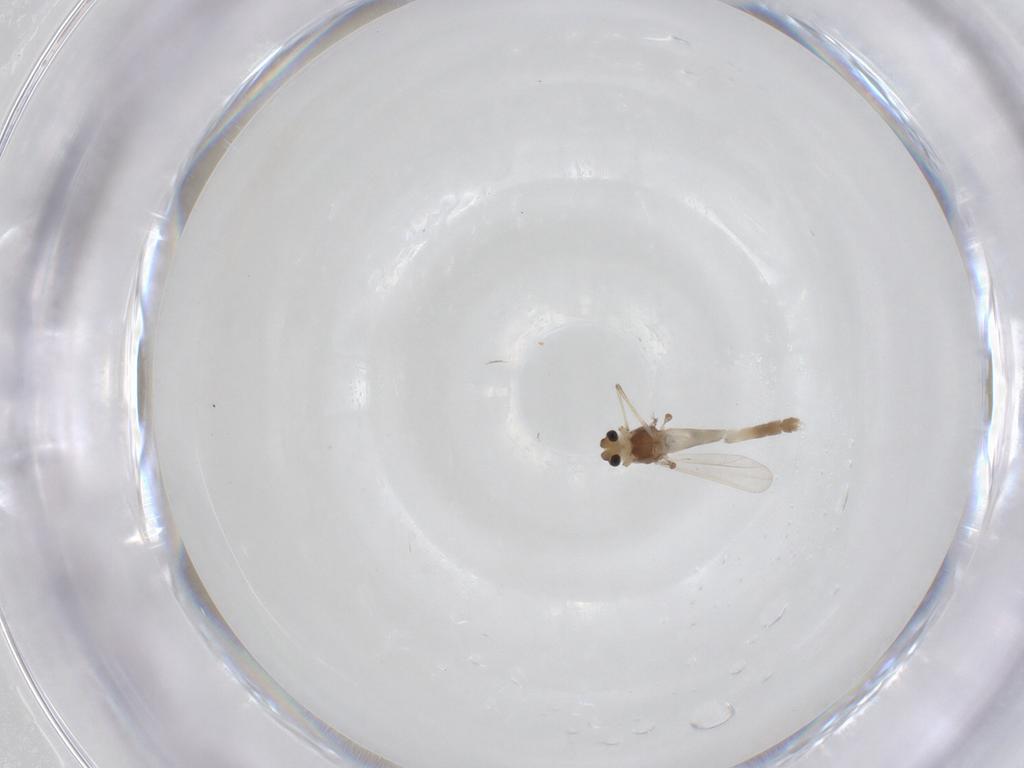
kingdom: Animalia
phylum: Arthropoda
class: Insecta
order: Diptera
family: Chironomidae
